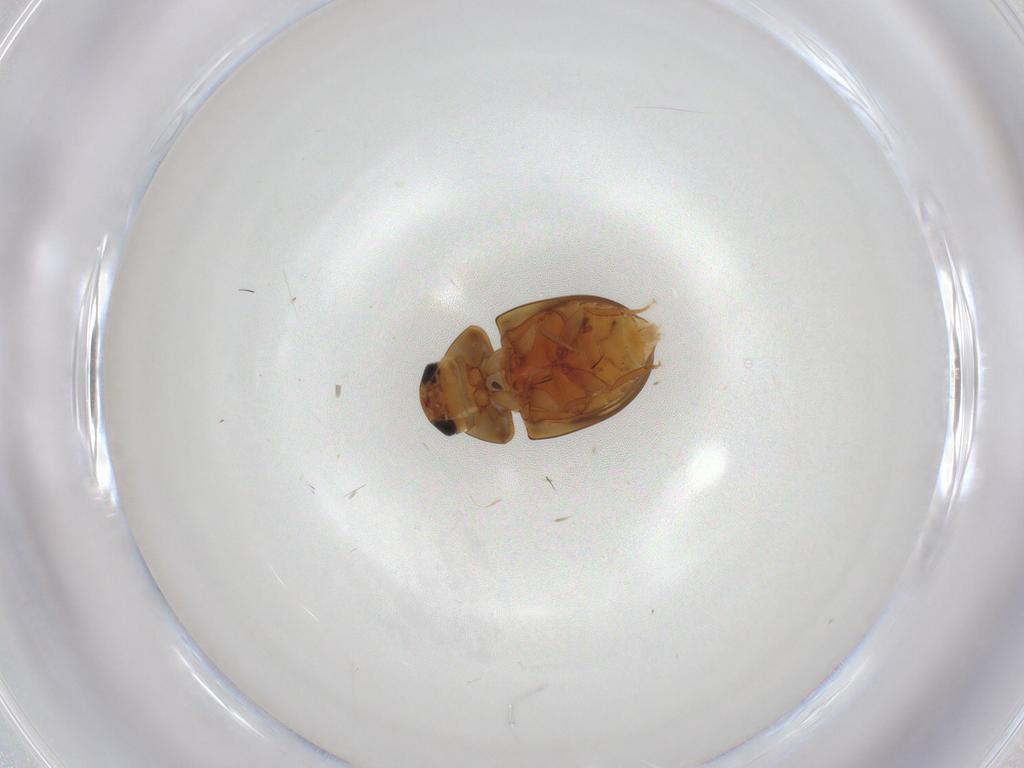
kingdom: Animalia
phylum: Arthropoda
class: Insecta
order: Coleoptera
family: Phalacridae
